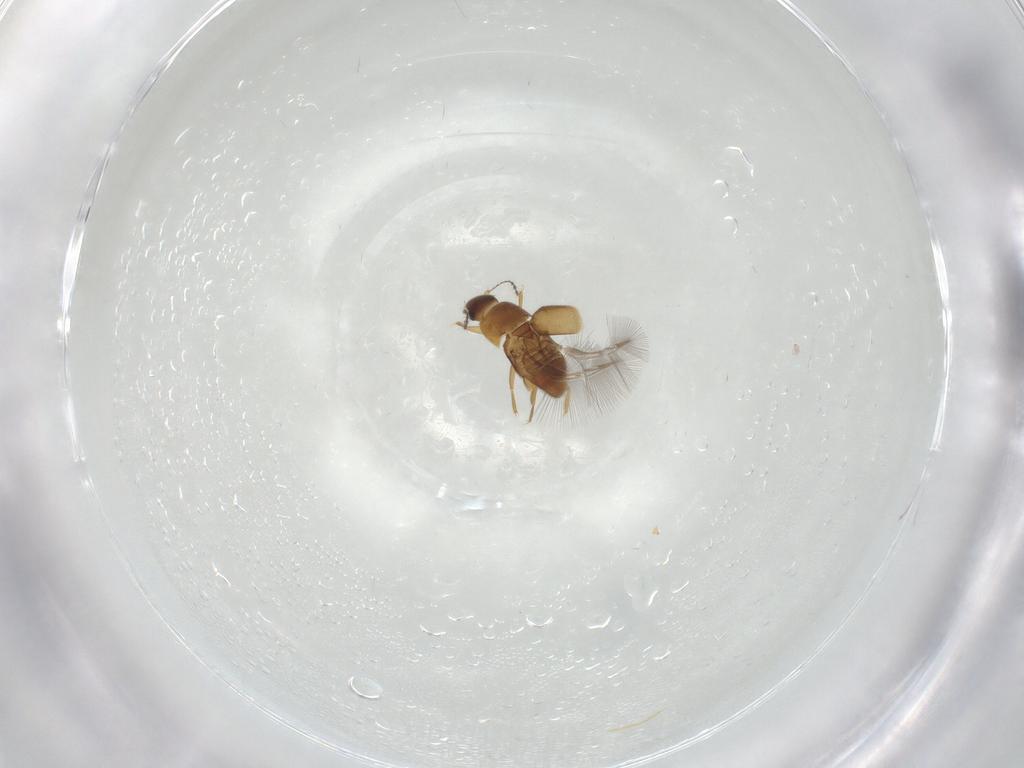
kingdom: Animalia
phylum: Arthropoda
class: Insecta
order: Coleoptera
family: Ptiliidae
